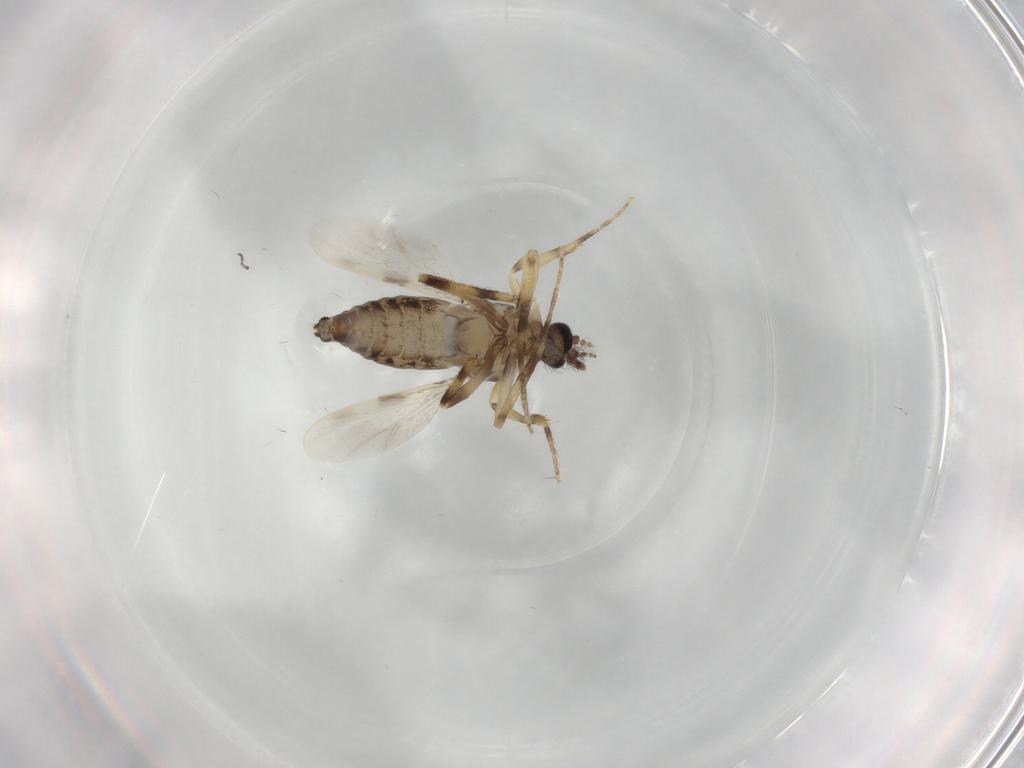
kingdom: Animalia
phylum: Arthropoda
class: Insecta
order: Diptera
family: Ceratopogonidae
